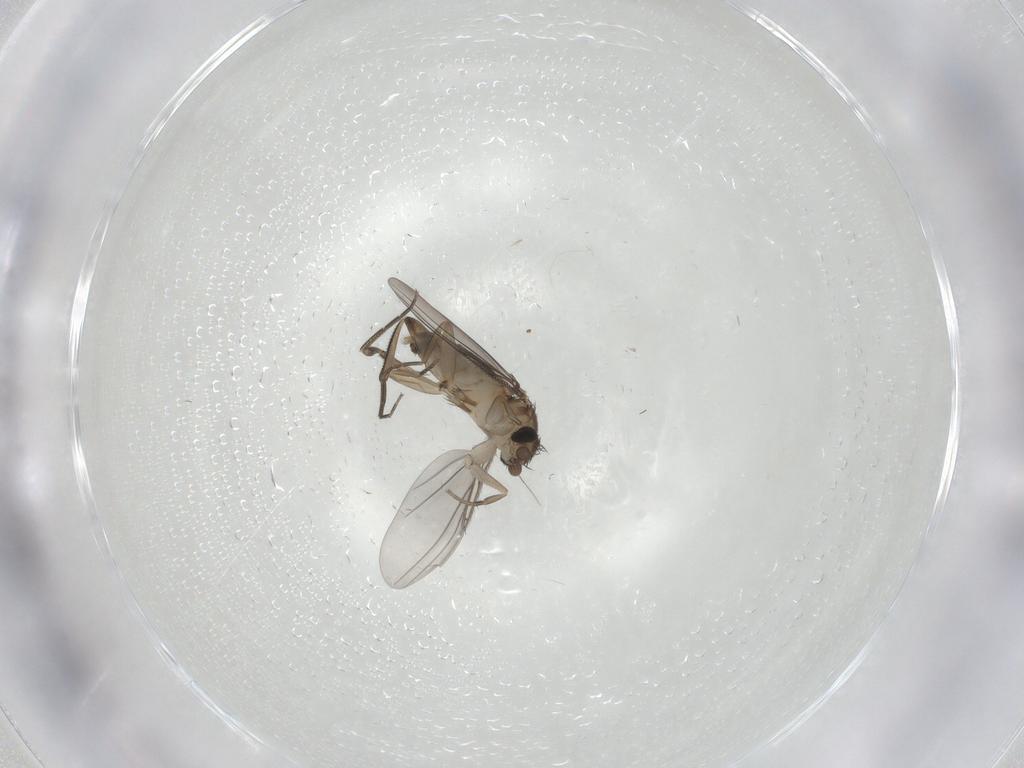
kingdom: Animalia
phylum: Arthropoda
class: Insecta
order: Diptera
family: Phoridae
